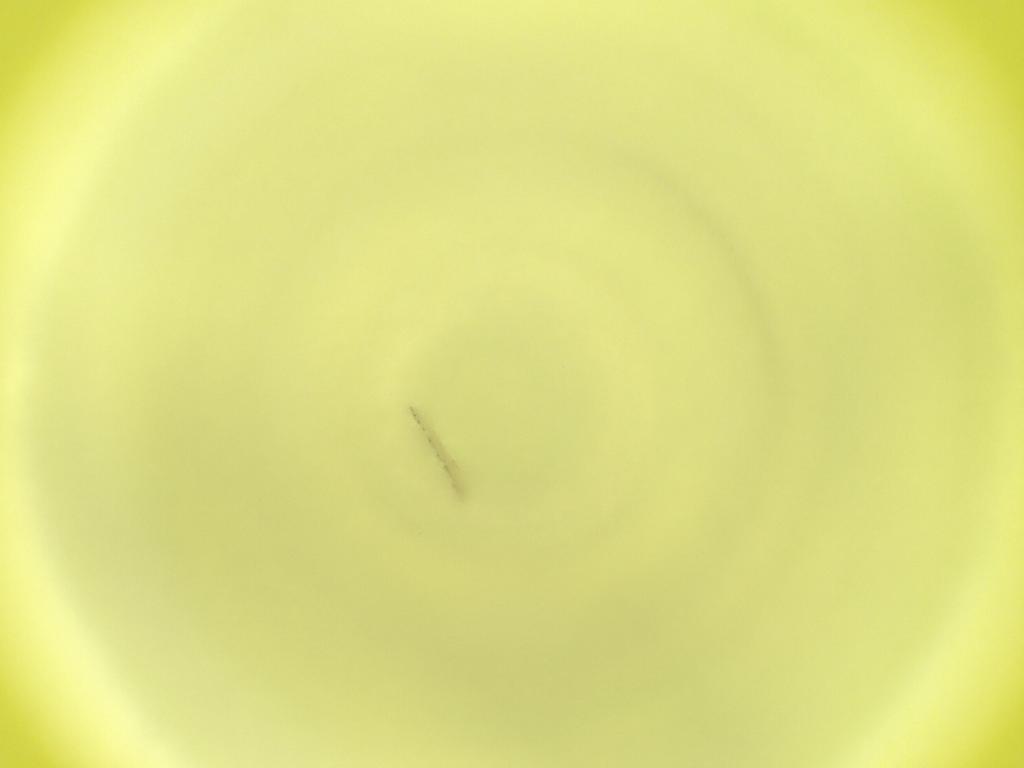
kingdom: Animalia
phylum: Arthropoda
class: Insecta
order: Diptera
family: Cecidomyiidae
